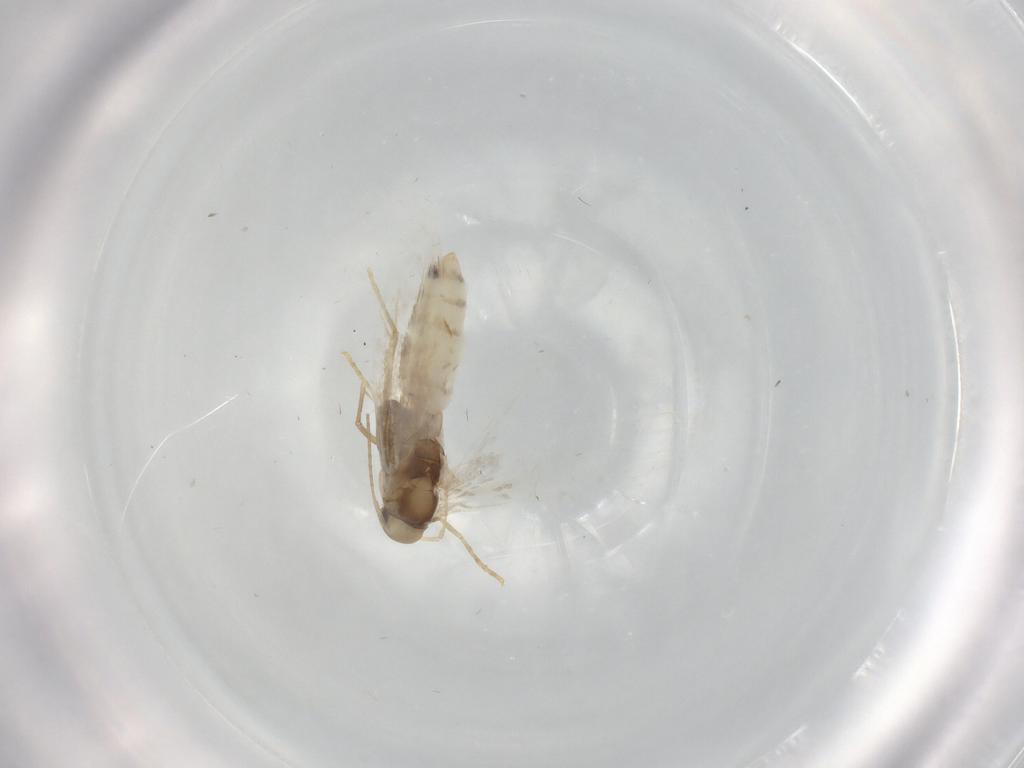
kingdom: Animalia
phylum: Arthropoda
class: Insecta
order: Lepidoptera
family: Gracillariidae
